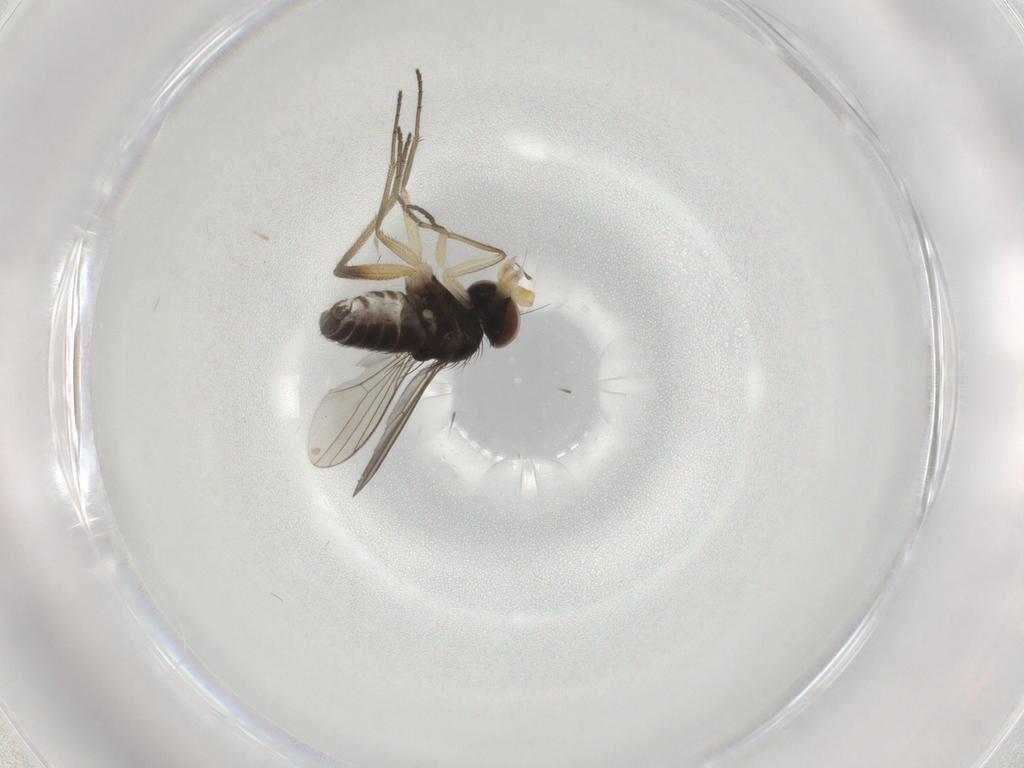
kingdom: Animalia
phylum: Arthropoda
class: Insecta
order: Diptera
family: Dolichopodidae
